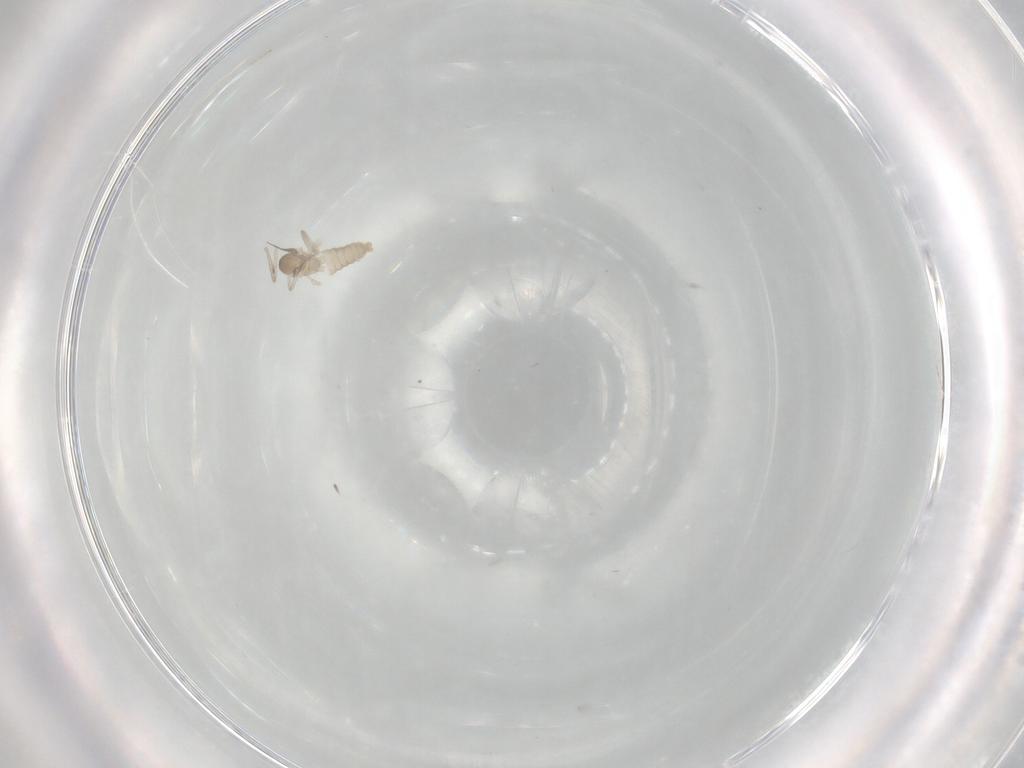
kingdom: Animalia
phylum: Arthropoda
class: Insecta
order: Diptera
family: Cecidomyiidae
